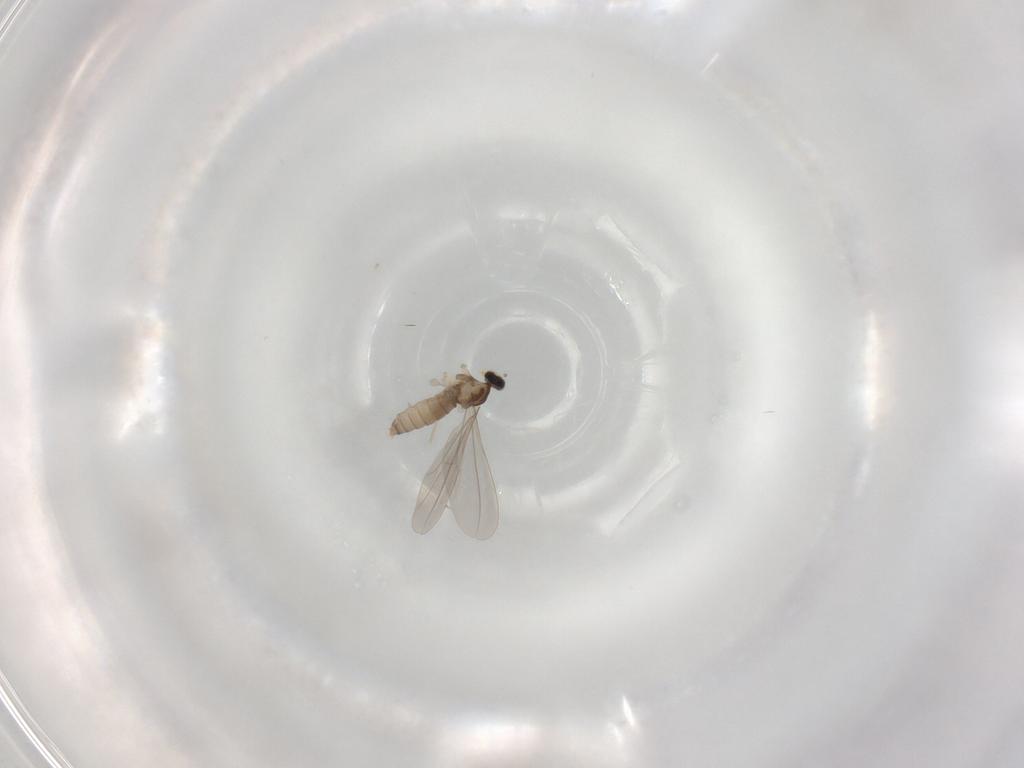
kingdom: Animalia
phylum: Arthropoda
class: Insecta
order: Diptera
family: Cecidomyiidae
